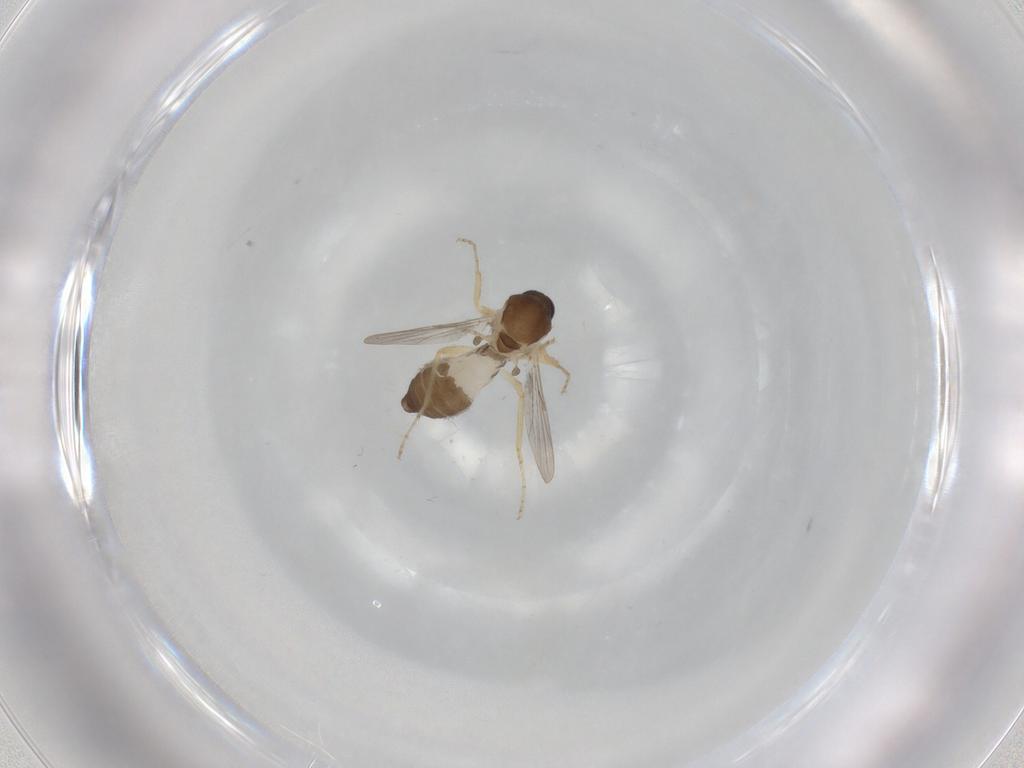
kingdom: Animalia
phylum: Arthropoda
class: Insecta
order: Diptera
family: Ceratopogonidae
